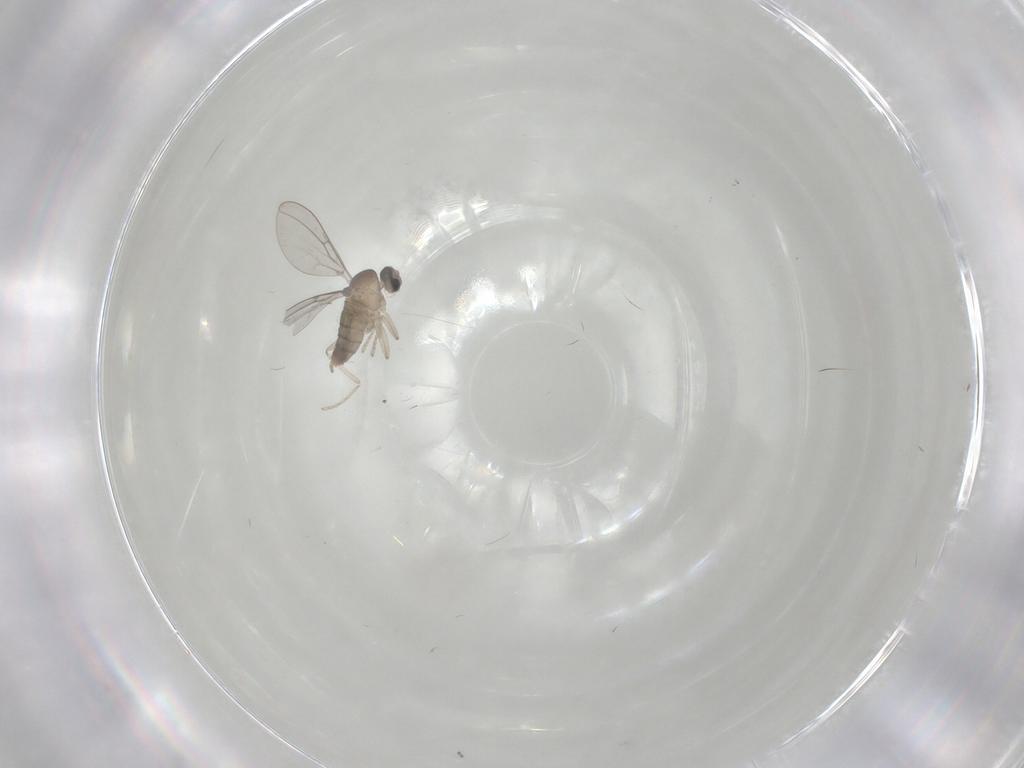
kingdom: Animalia
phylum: Arthropoda
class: Insecta
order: Diptera
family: Cecidomyiidae
